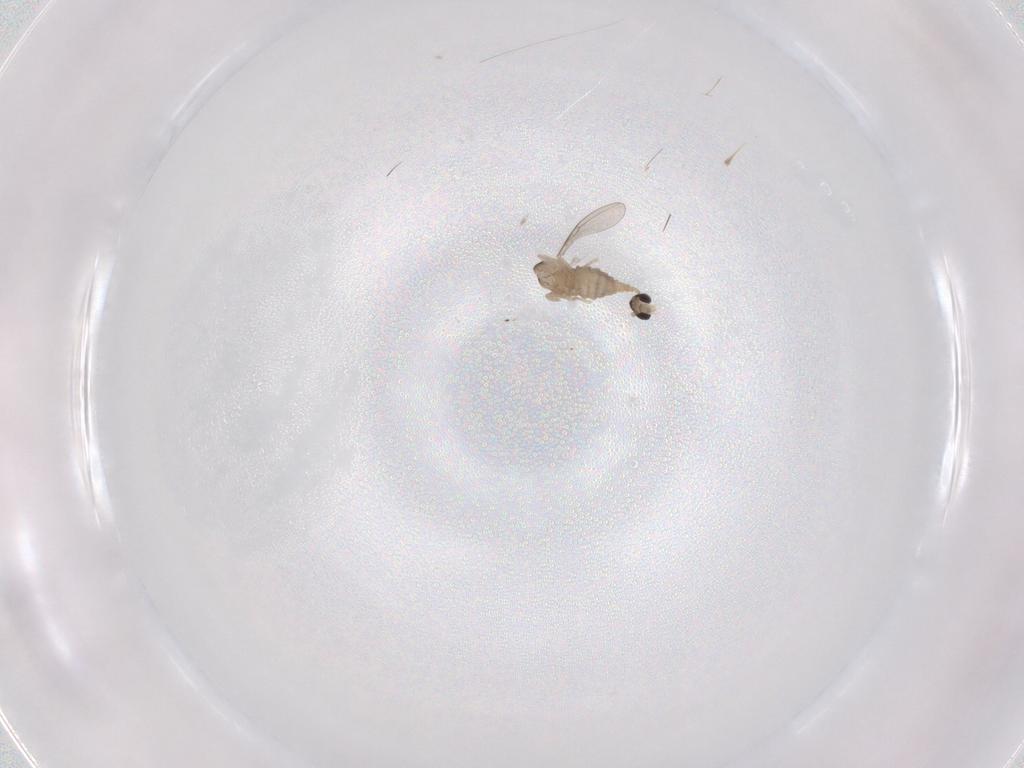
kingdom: Animalia
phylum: Arthropoda
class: Insecta
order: Diptera
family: Cecidomyiidae
